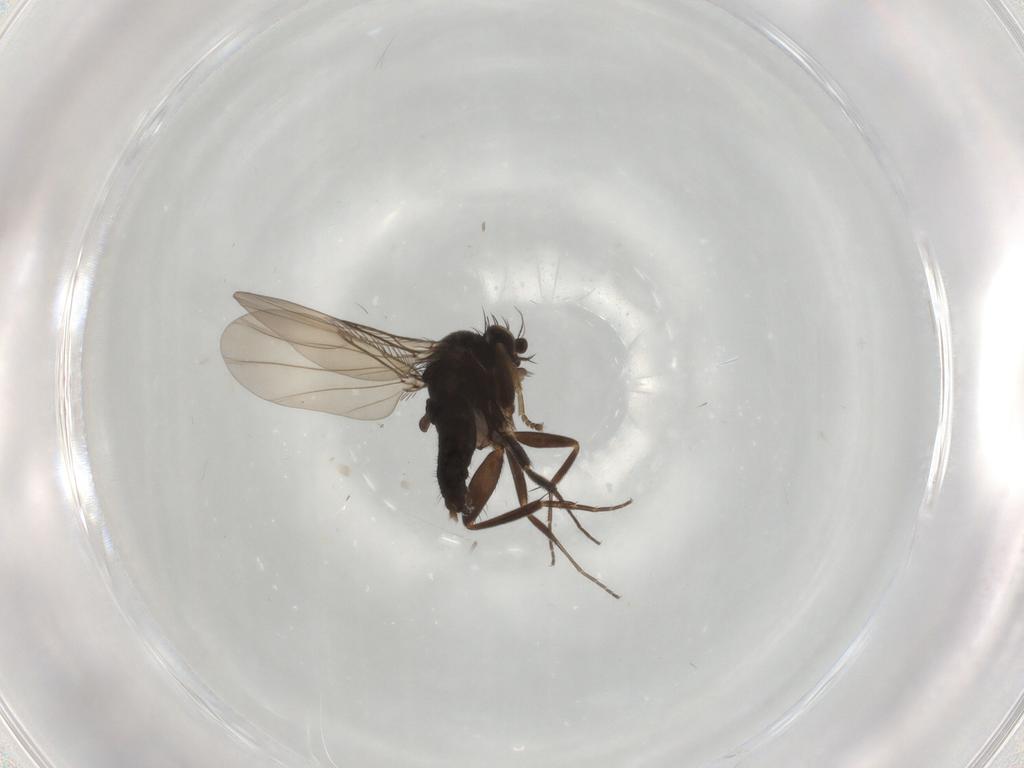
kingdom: Animalia
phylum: Arthropoda
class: Insecta
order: Diptera
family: Phoridae
